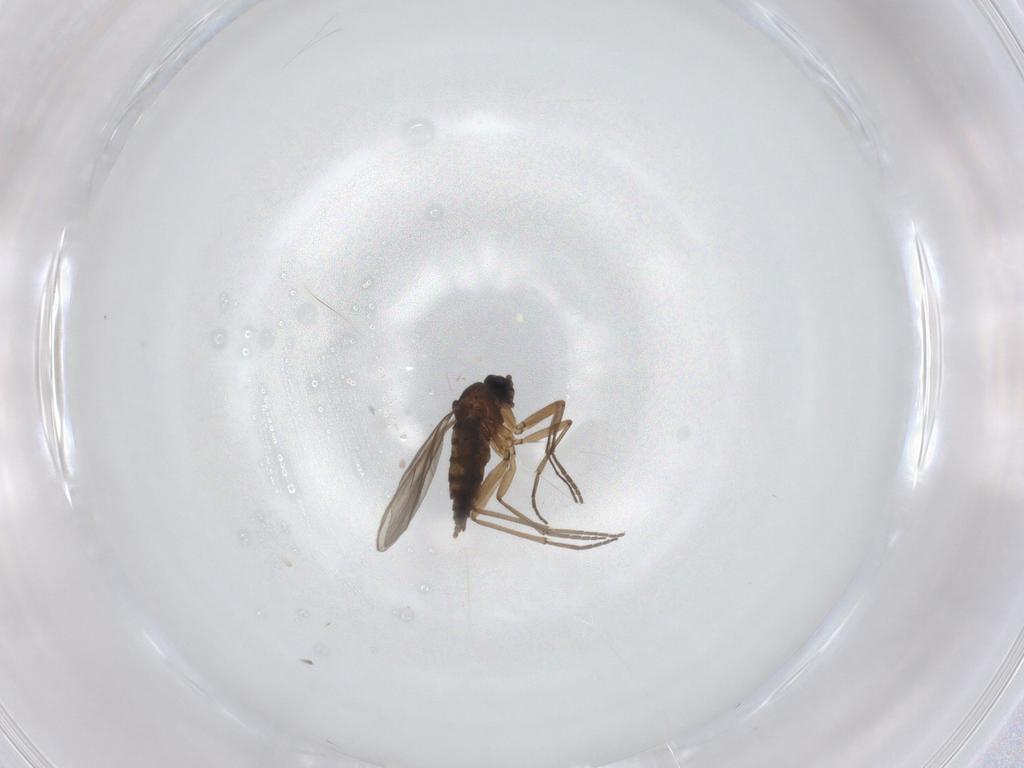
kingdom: Animalia
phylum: Arthropoda
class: Insecta
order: Diptera
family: Sciaridae
